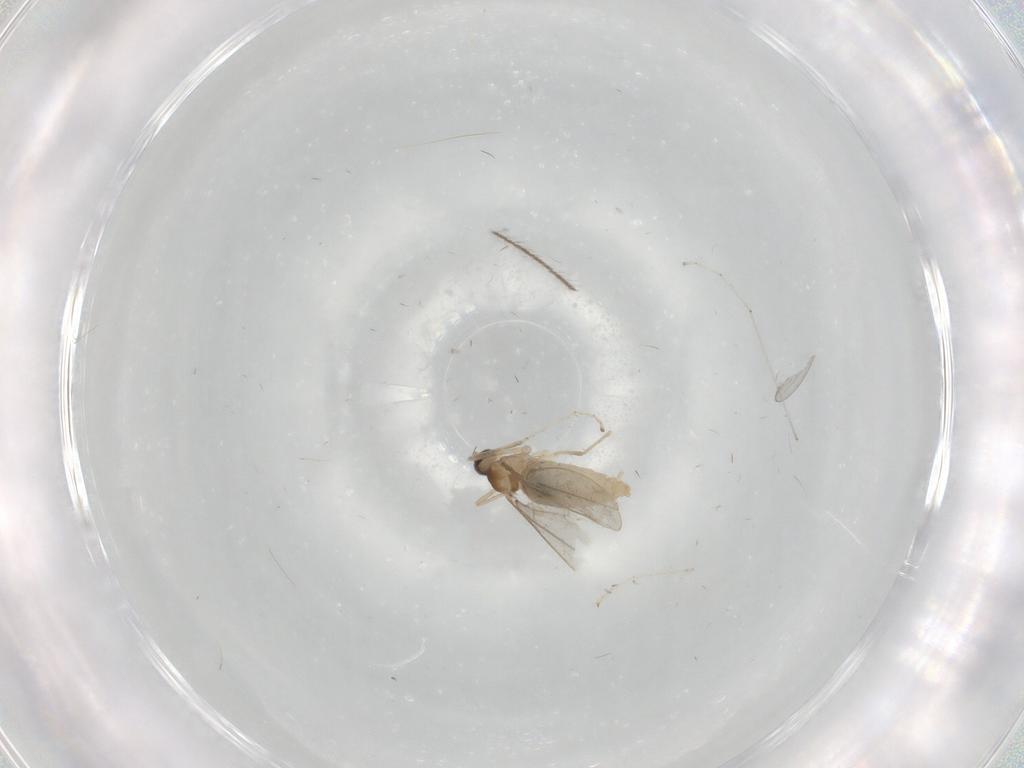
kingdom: Animalia
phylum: Arthropoda
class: Insecta
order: Diptera
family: Cecidomyiidae
